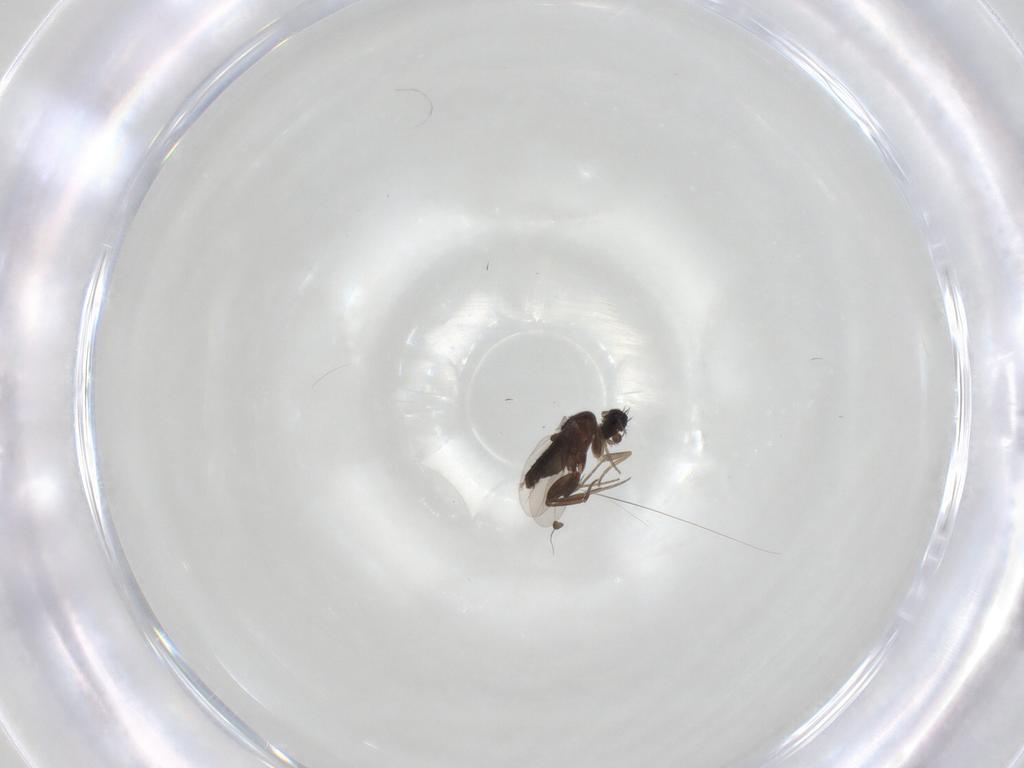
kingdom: Animalia
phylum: Arthropoda
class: Insecta
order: Diptera
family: Phoridae
